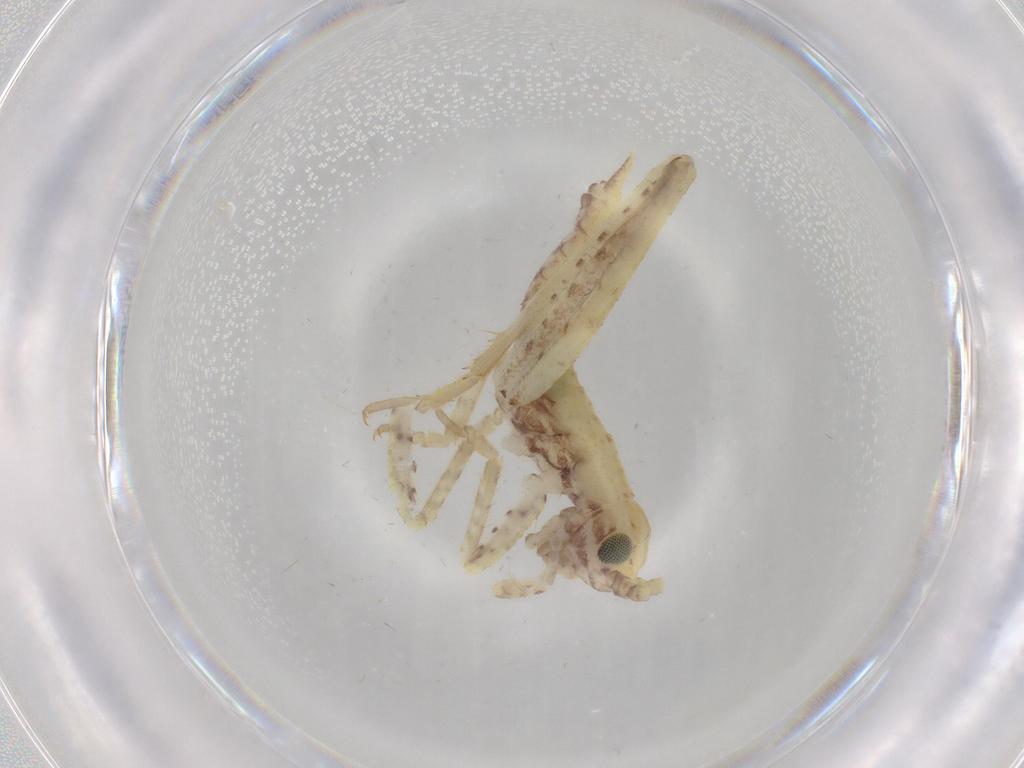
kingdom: Animalia
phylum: Arthropoda
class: Insecta
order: Orthoptera
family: Gryllidae
